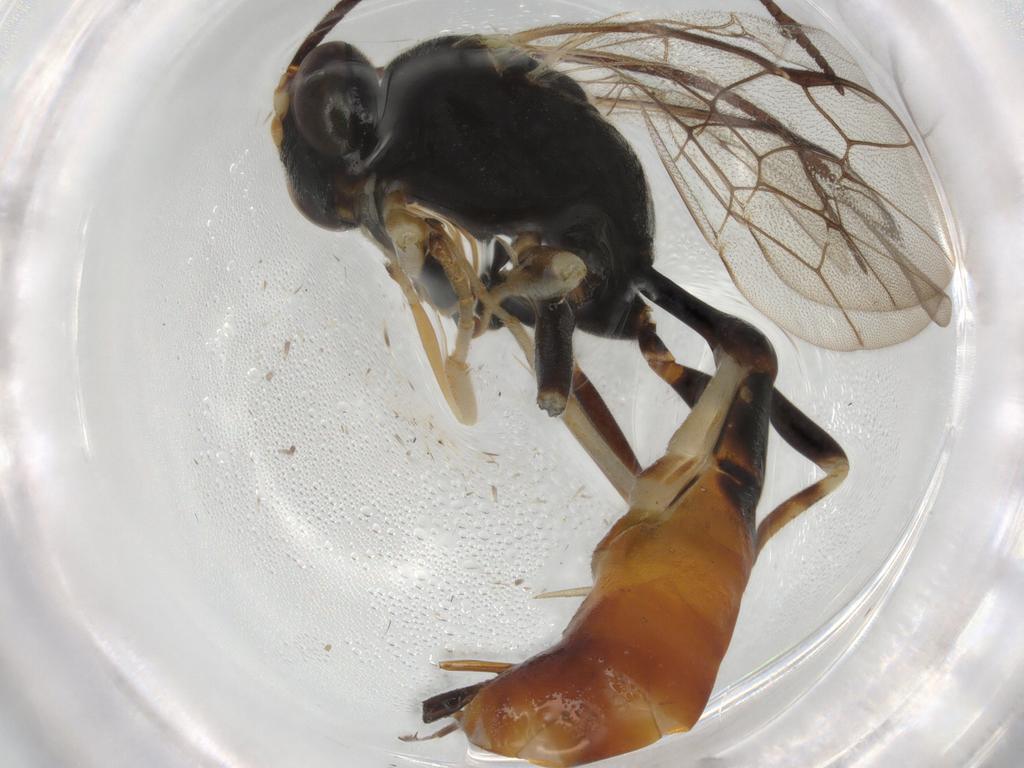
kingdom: Animalia
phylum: Arthropoda
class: Insecta
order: Hymenoptera
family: Ichneumonidae
